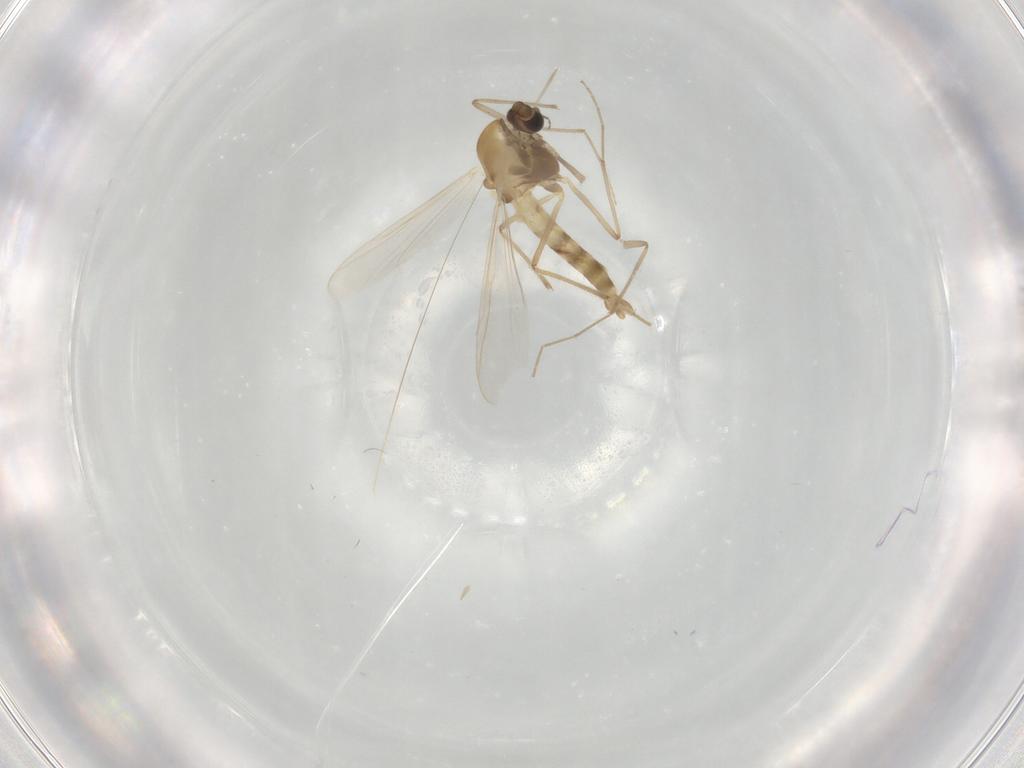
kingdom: Animalia
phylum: Arthropoda
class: Insecta
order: Diptera
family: Chironomidae
